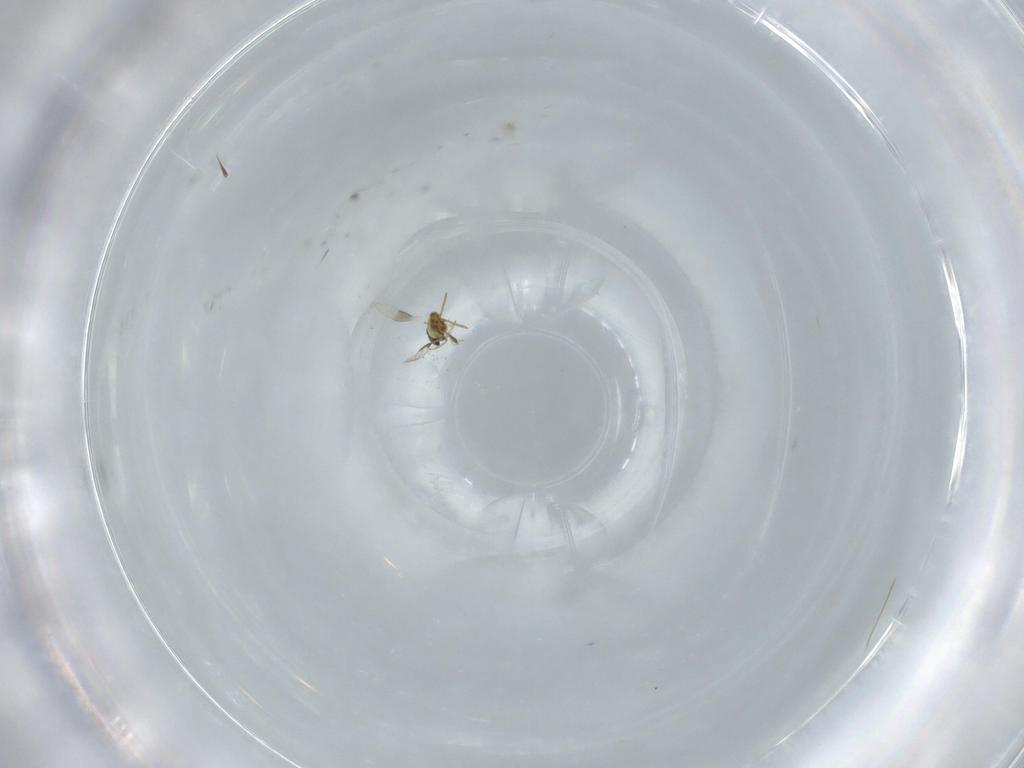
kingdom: Animalia
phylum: Arthropoda
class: Insecta
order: Hymenoptera
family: Aphelinidae
